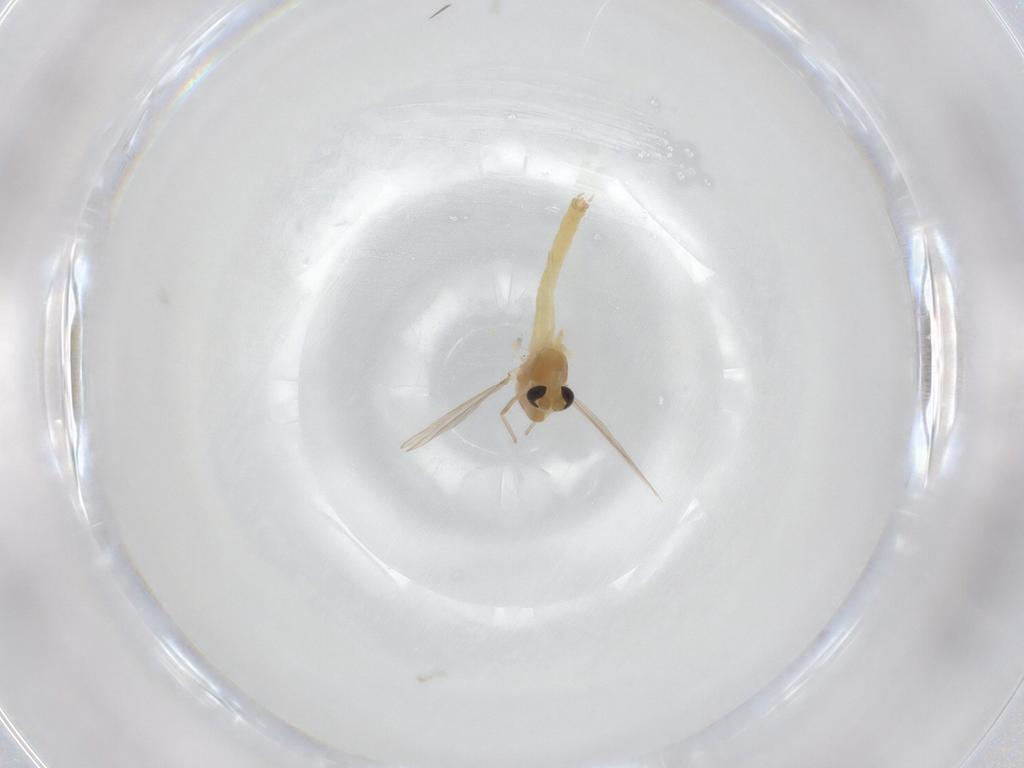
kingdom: Animalia
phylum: Arthropoda
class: Insecta
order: Diptera
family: Chironomidae
